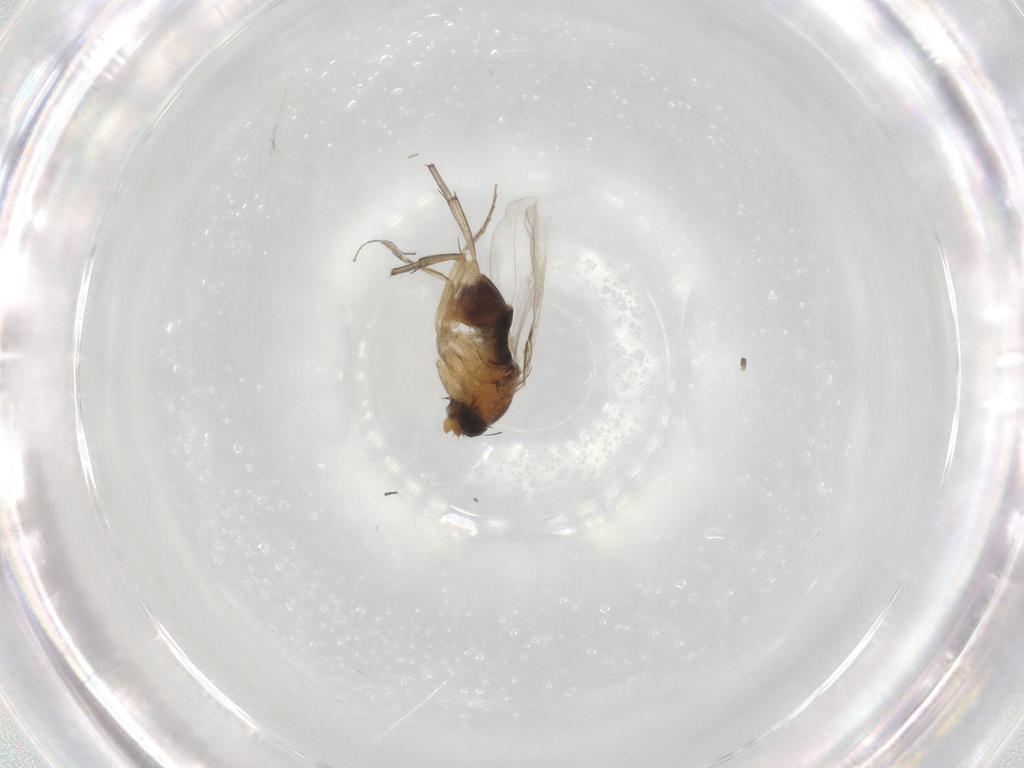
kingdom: Animalia
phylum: Arthropoda
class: Insecta
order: Diptera
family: Phoridae
